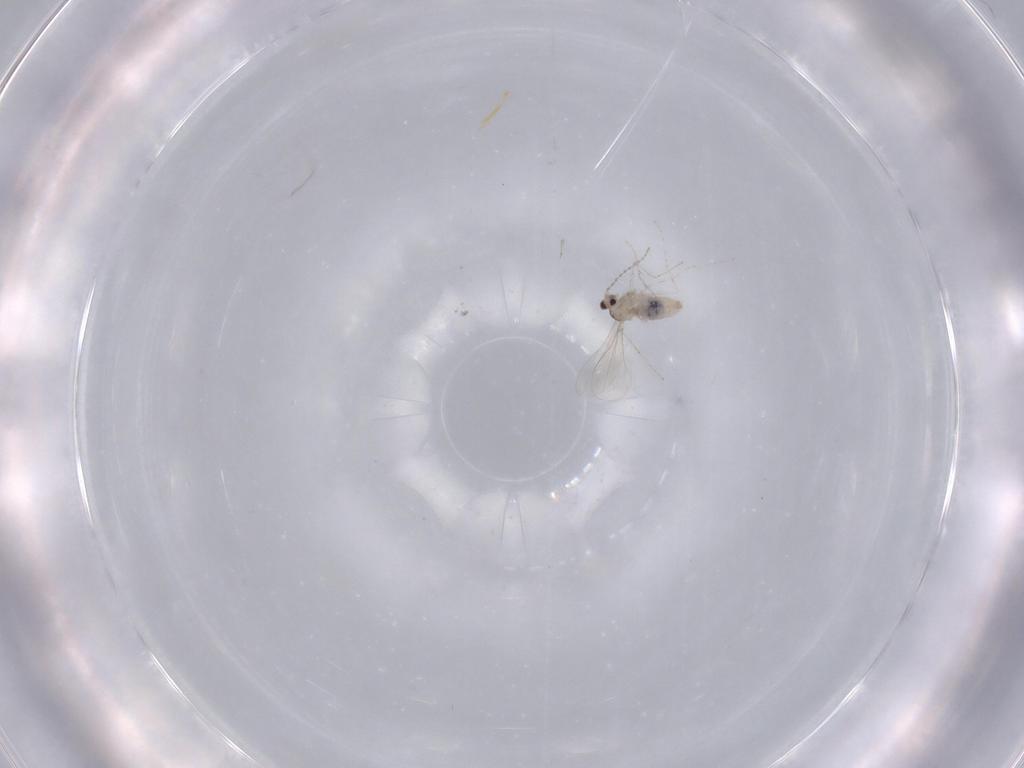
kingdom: Animalia
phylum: Arthropoda
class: Insecta
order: Diptera
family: Cecidomyiidae
